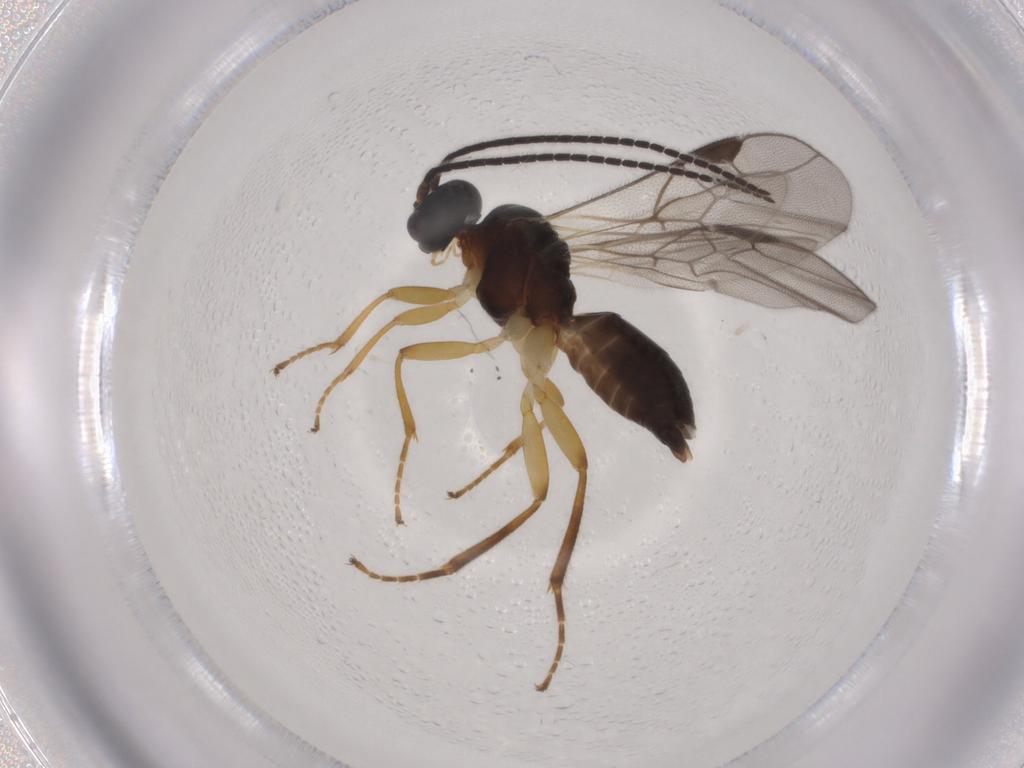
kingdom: Animalia
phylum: Arthropoda
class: Insecta
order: Hymenoptera
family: Braconidae
